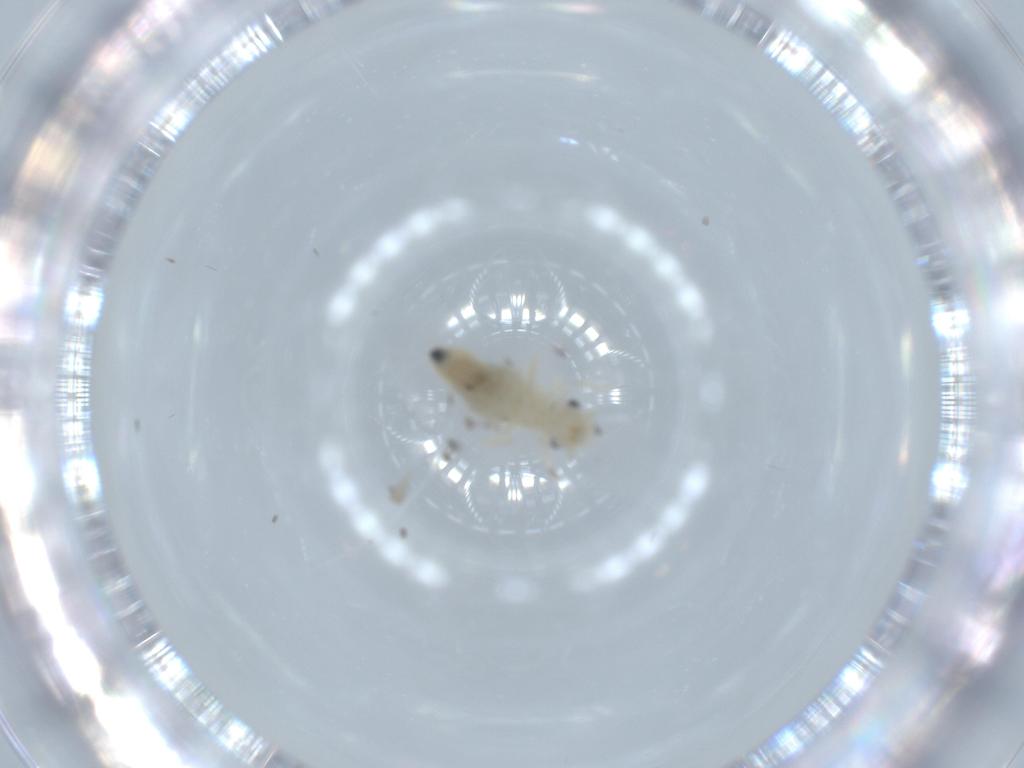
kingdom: Animalia
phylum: Arthropoda
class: Insecta
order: Psocodea
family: Caeciliusidae
